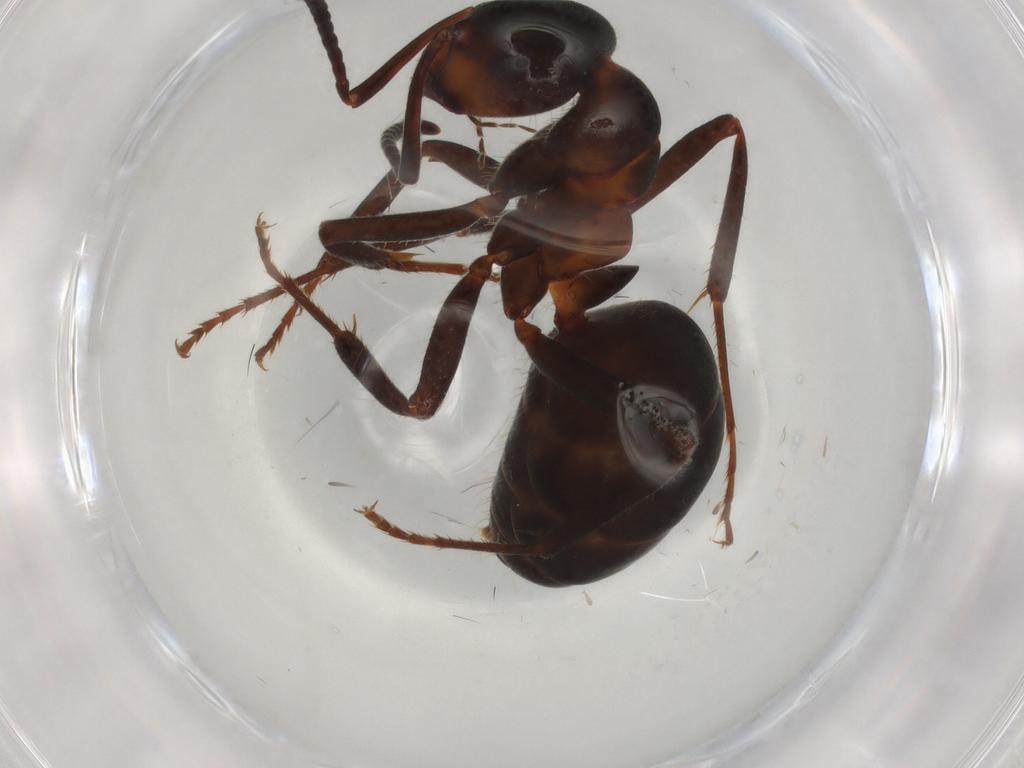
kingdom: Animalia
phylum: Arthropoda
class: Insecta
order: Hymenoptera
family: Formicidae
